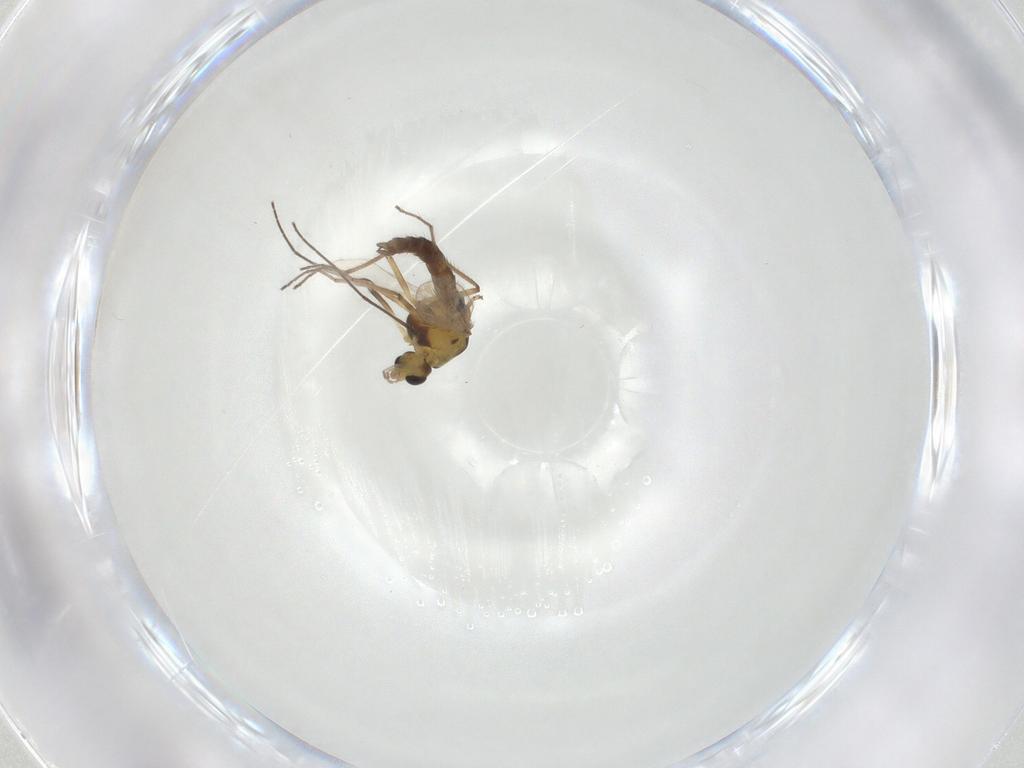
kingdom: Animalia
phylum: Arthropoda
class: Insecta
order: Diptera
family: Chironomidae
